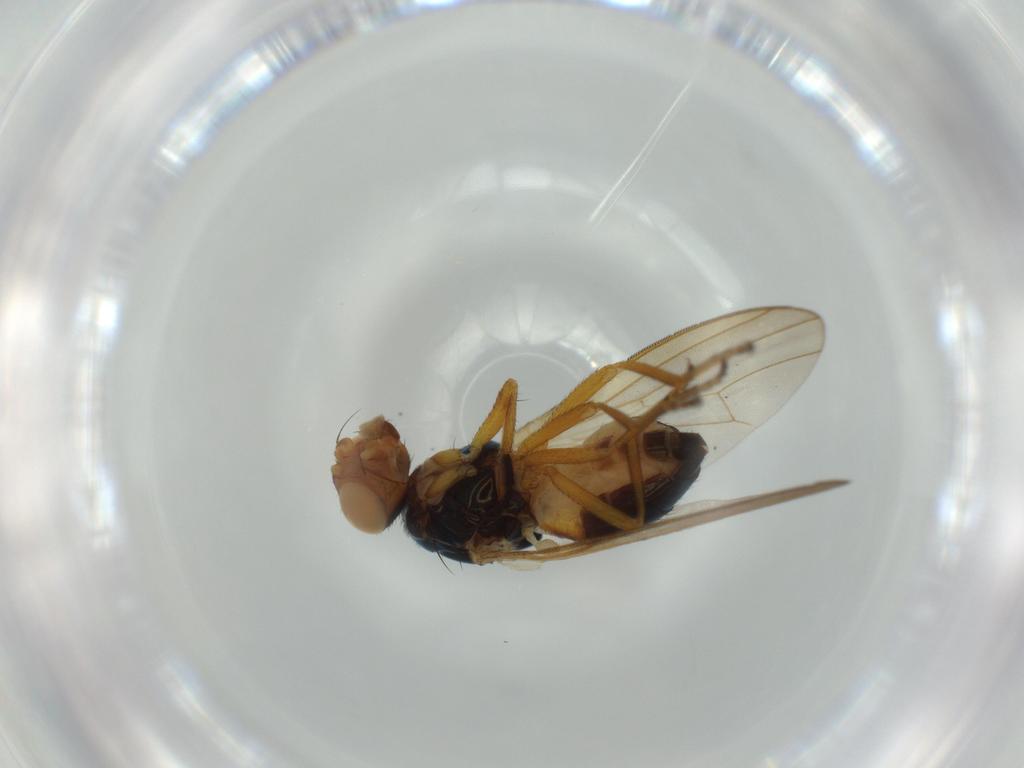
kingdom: Animalia
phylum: Arthropoda
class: Insecta
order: Diptera
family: Piophilidae
